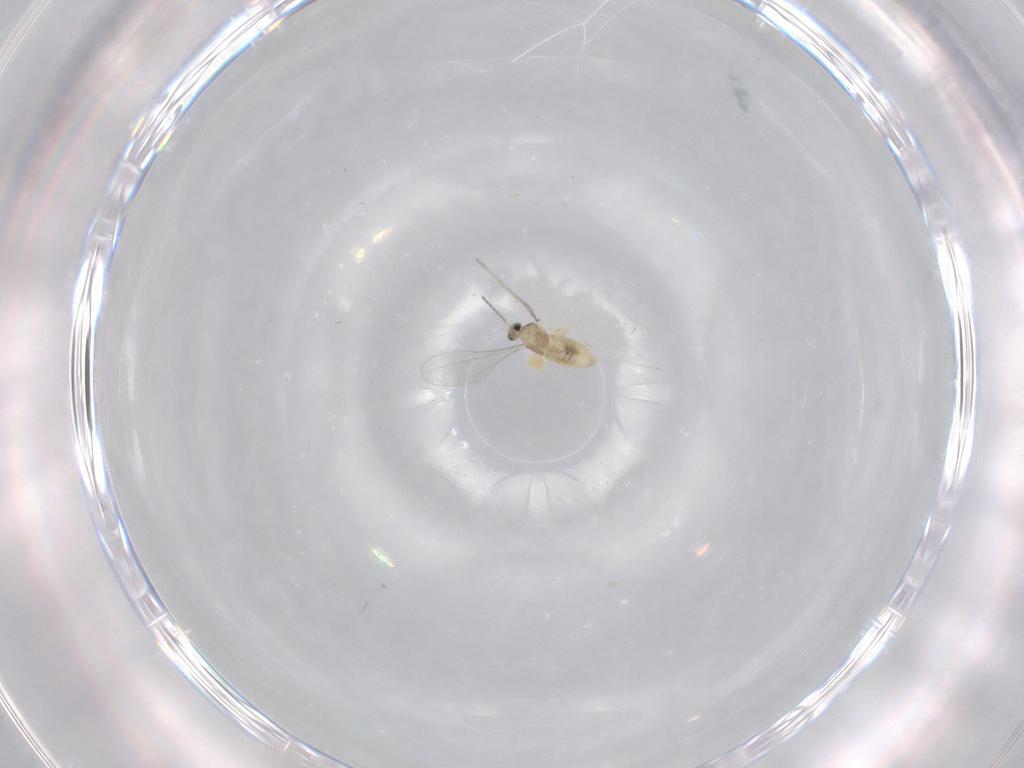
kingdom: Animalia
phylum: Arthropoda
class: Insecta
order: Diptera
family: Cecidomyiidae
